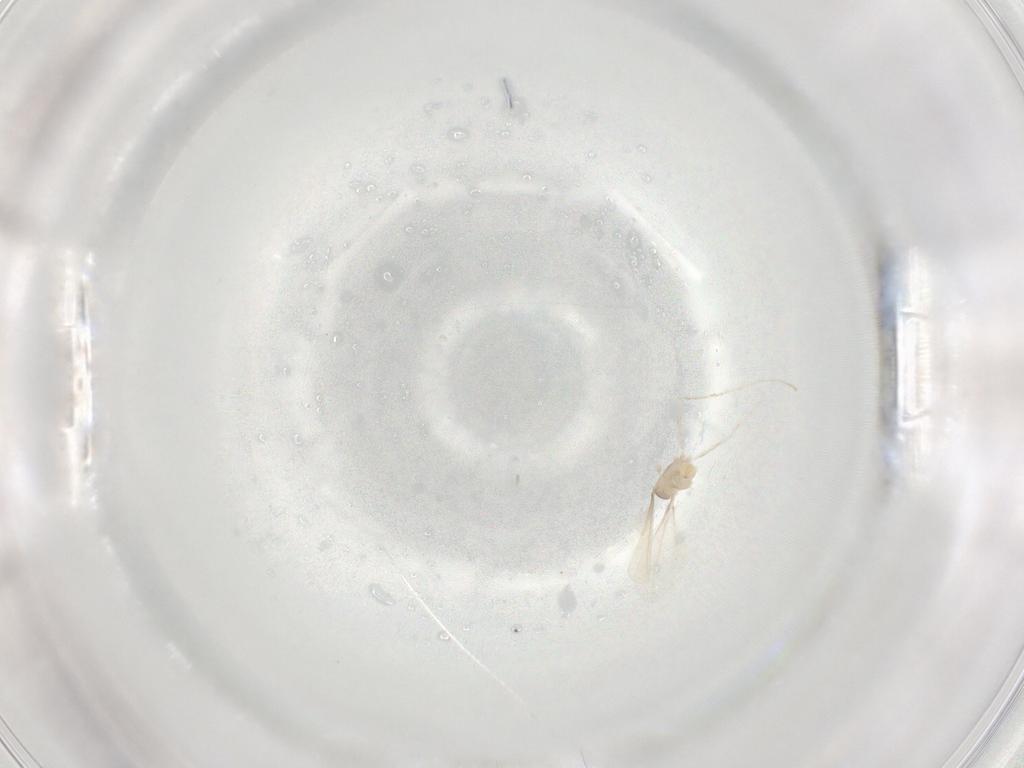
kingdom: Animalia
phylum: Arthropoda
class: Insecta
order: Diptera
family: Cecidomyiidae
